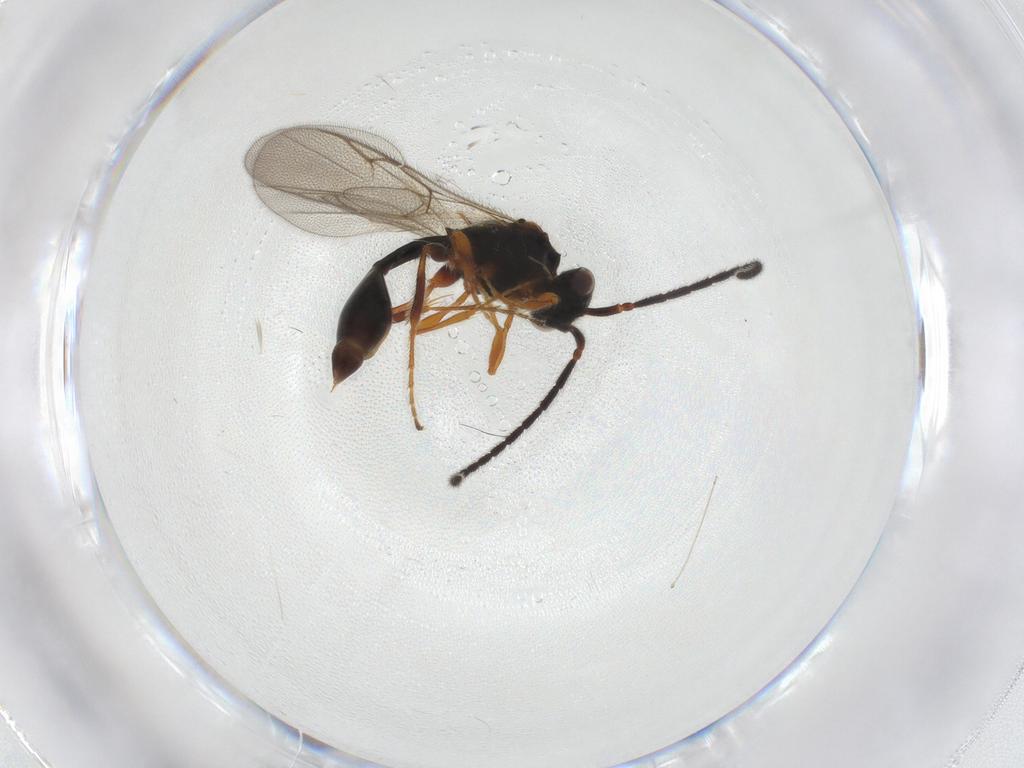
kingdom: Animalia
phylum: Arthropoda
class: Insecta
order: Hymenoptera
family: Diapriidae
